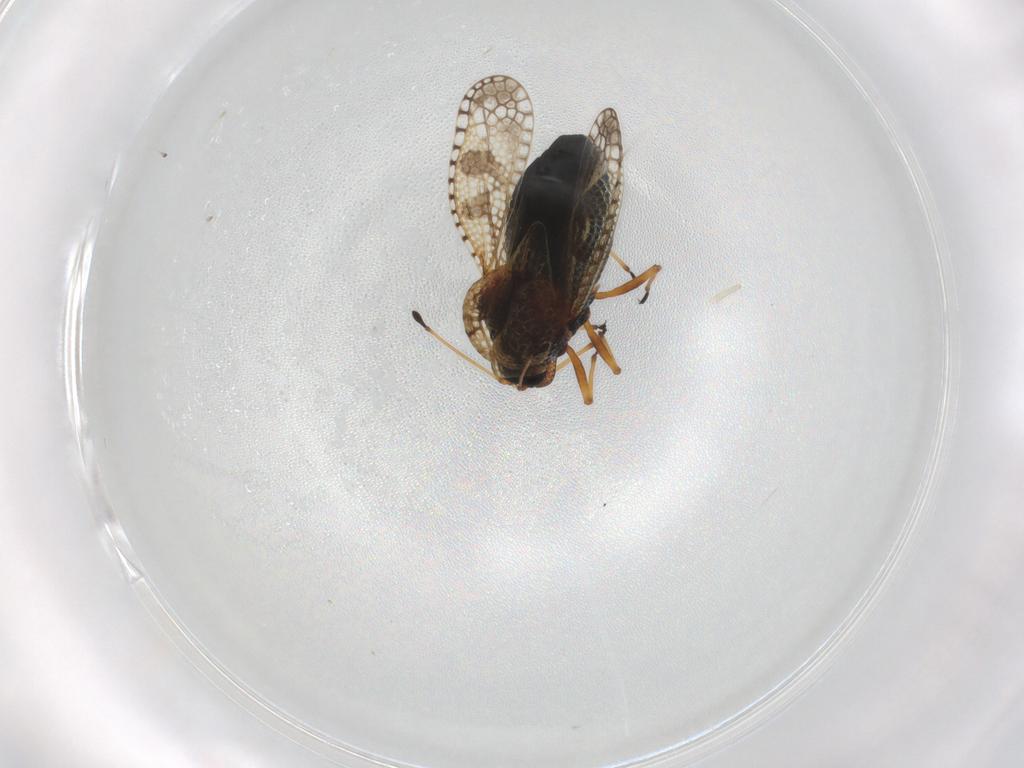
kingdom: Animalia
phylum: Arthropoda
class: Insecta
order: Hemiptera
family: Tingidae
